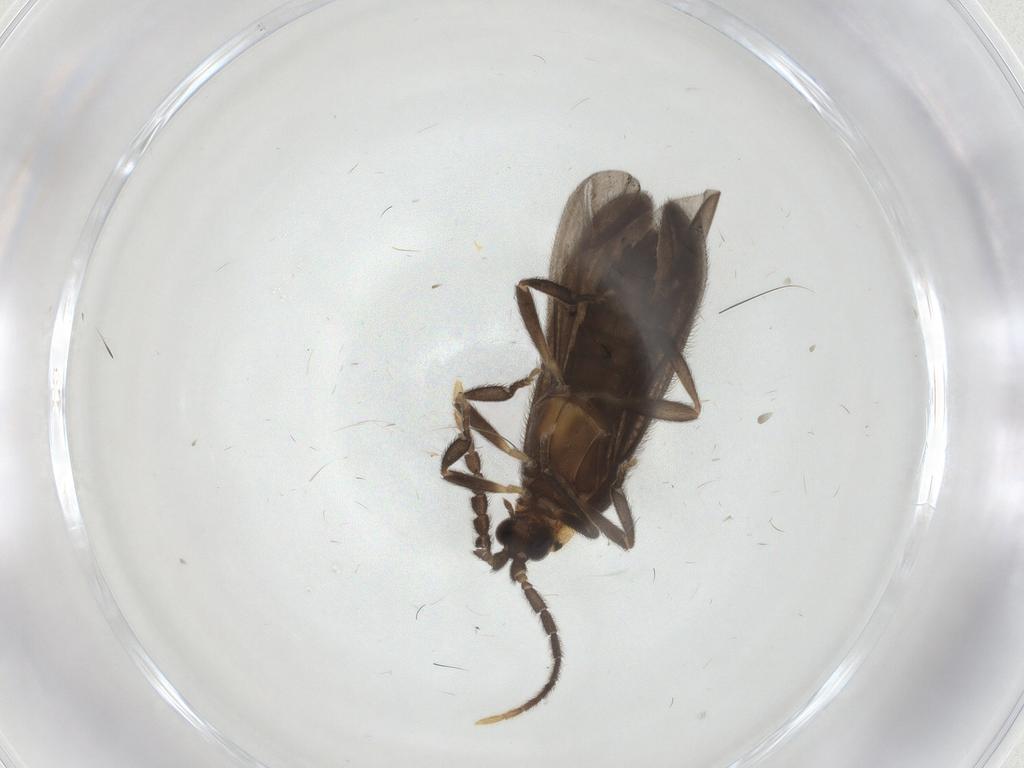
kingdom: Animalia
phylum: Arthropoda
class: Insecta
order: Coleoptera
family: Lycidae
